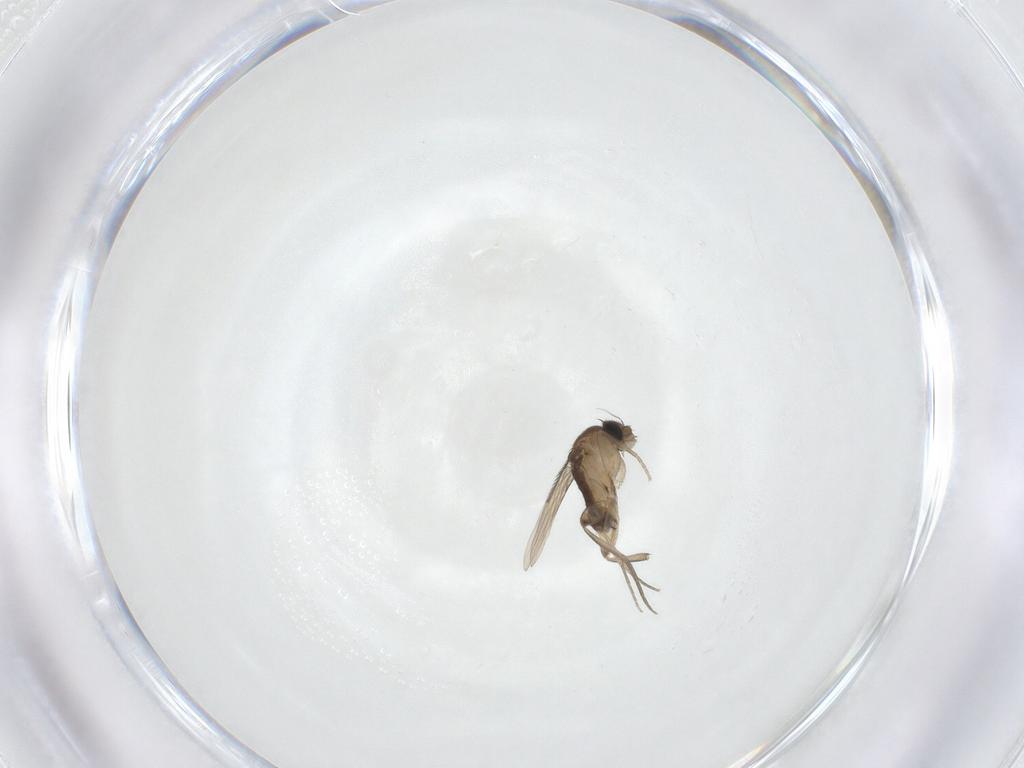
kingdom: Animalia
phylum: Arthropoda
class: Insecta
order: Diptera
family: Phoridae
